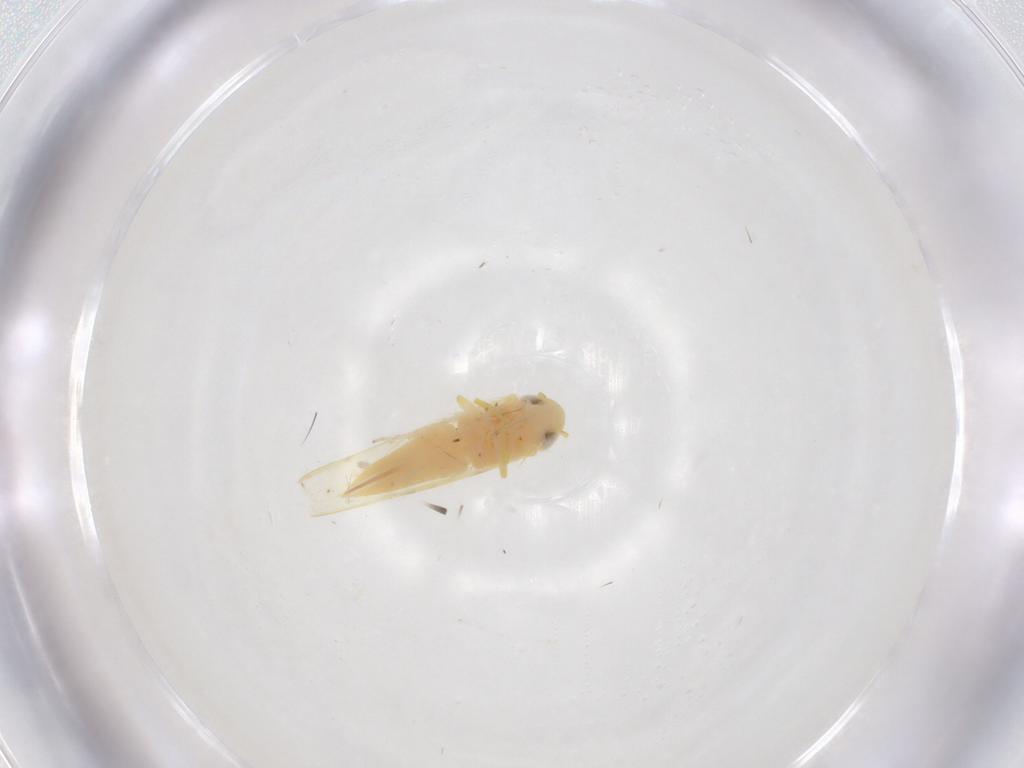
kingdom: Animalia
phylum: Arthropoda
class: Insecta
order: Hemiptera
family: Cicadellidae
